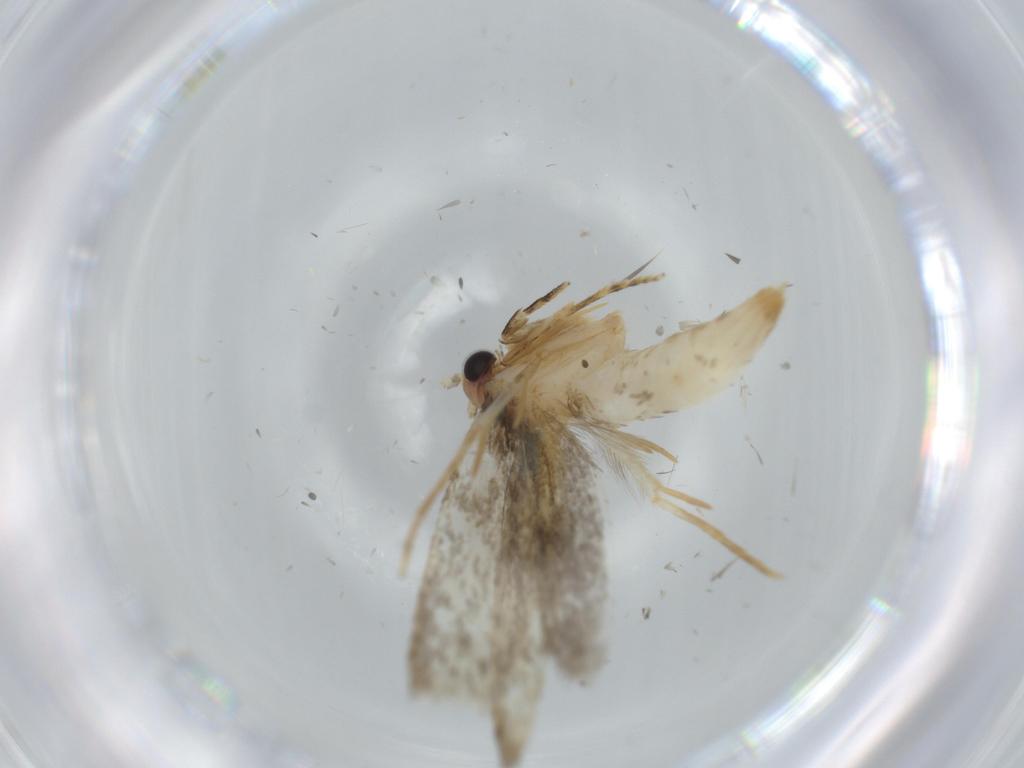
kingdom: Animalia
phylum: Arthropoda
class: Insecta
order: Lepidoptera
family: Tineidae
